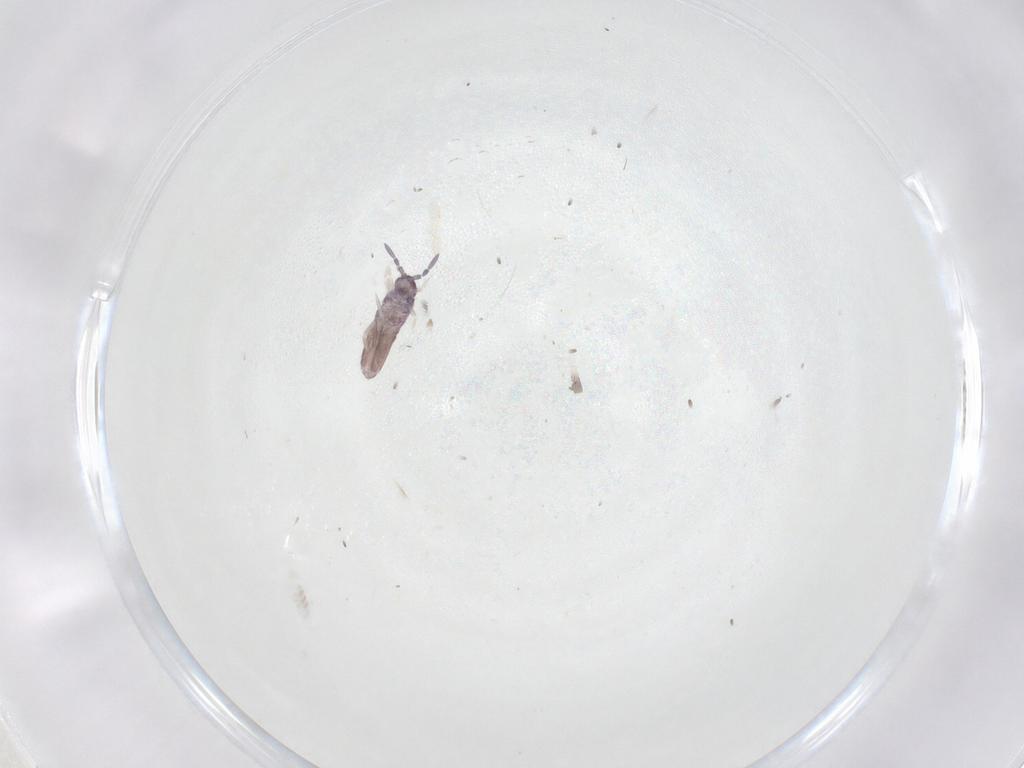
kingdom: Animalia
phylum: Arthropoda
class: Collembola
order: Entomobryomorpha
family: Entomobryidae
